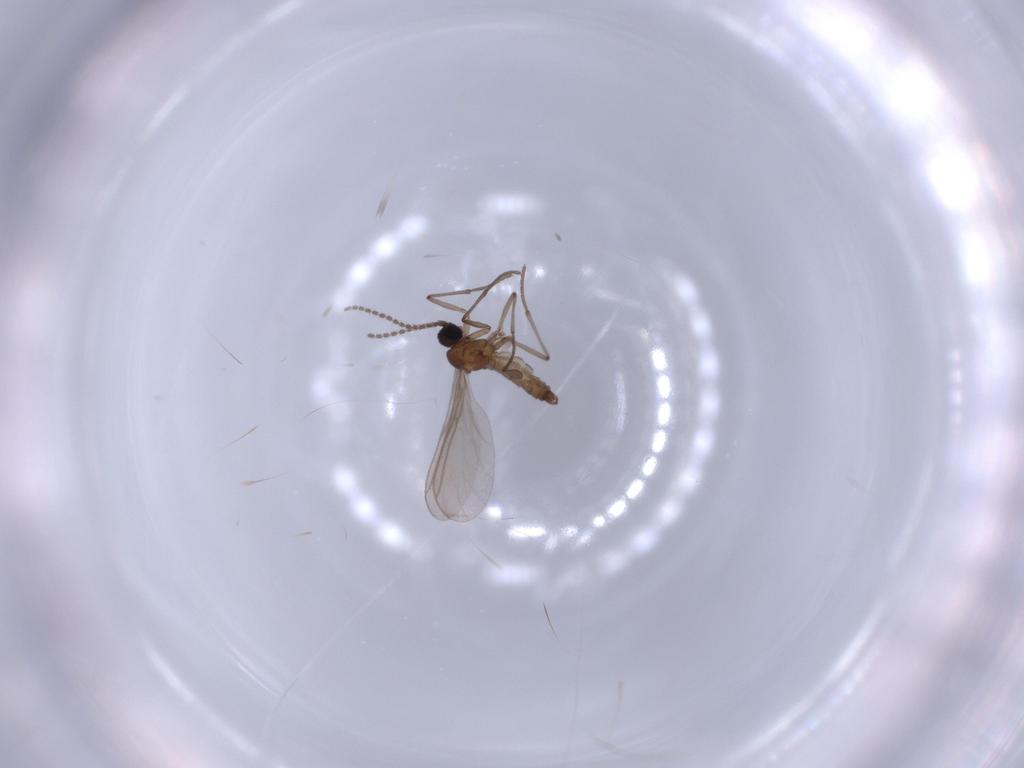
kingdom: Animalia
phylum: Arthropoda
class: Insecta
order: Diptera
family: Sciaridae
